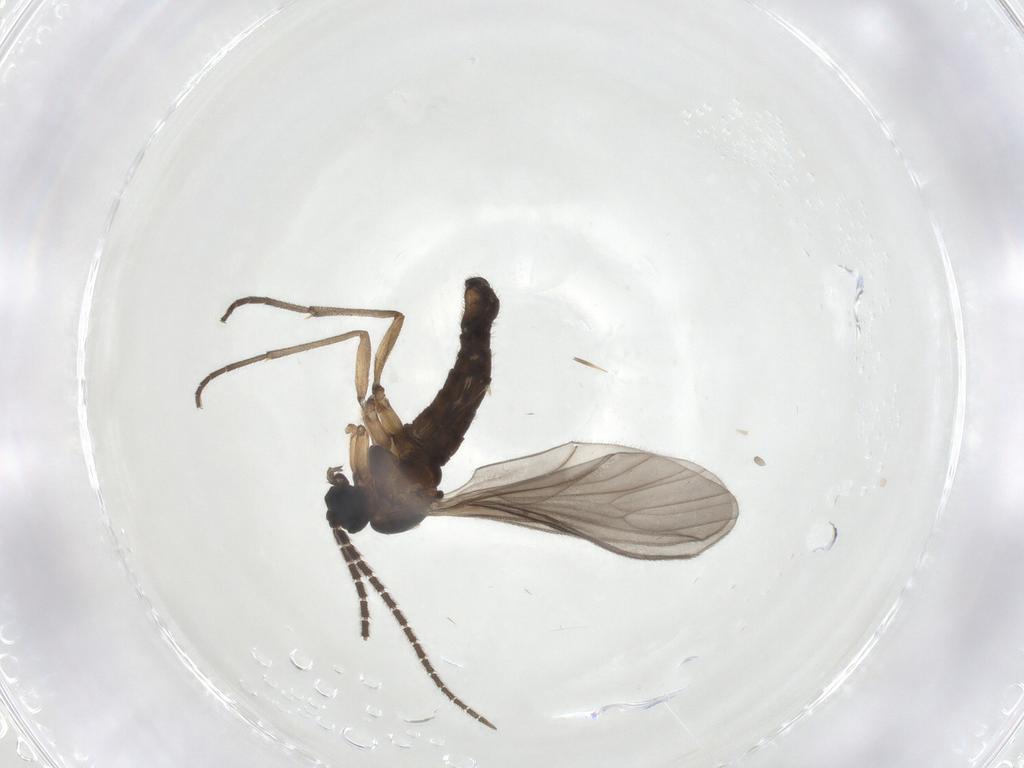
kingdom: Animalia
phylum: Arthropoda
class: Insecta
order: Diptera
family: Sciaridae
